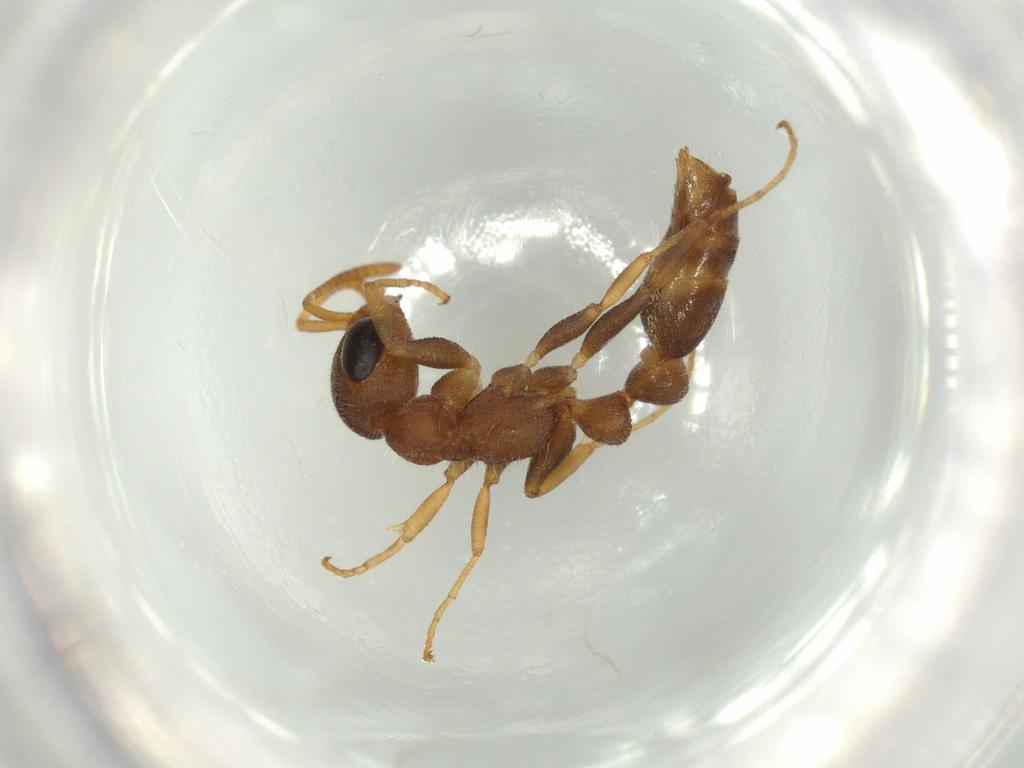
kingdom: Animalia
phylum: Arthropoda
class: Insecta
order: Hymenoptera
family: Formicidae
